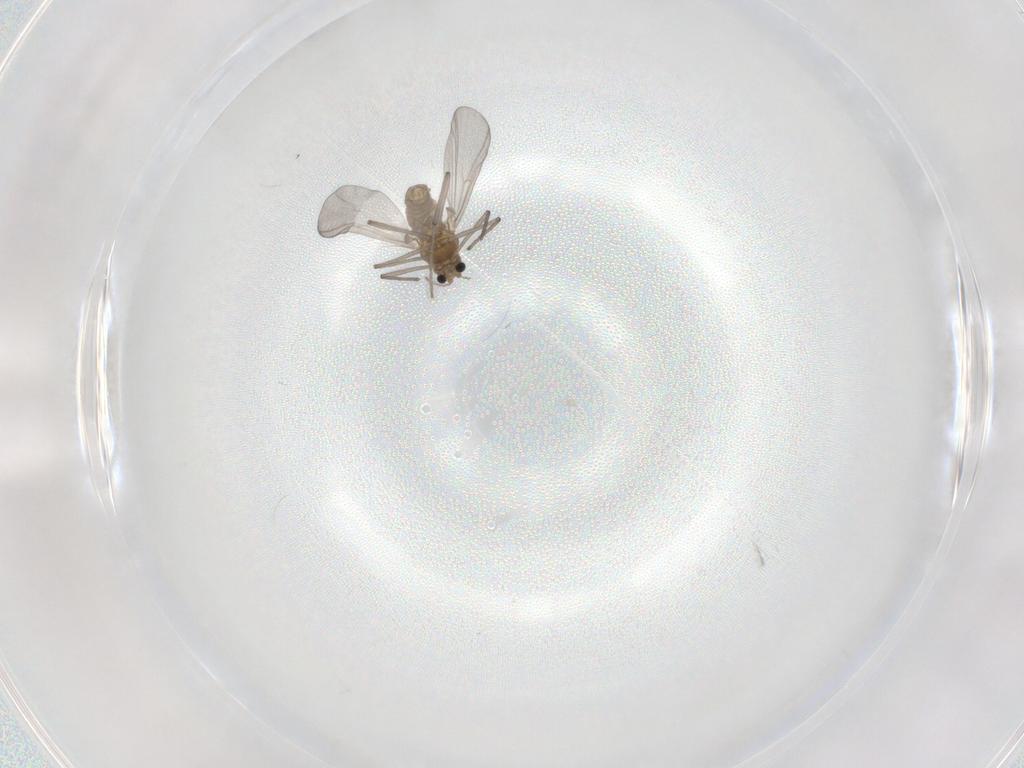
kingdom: Animalia
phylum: Arthropoda
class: Insecta
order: Diptera
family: Chironomidae
